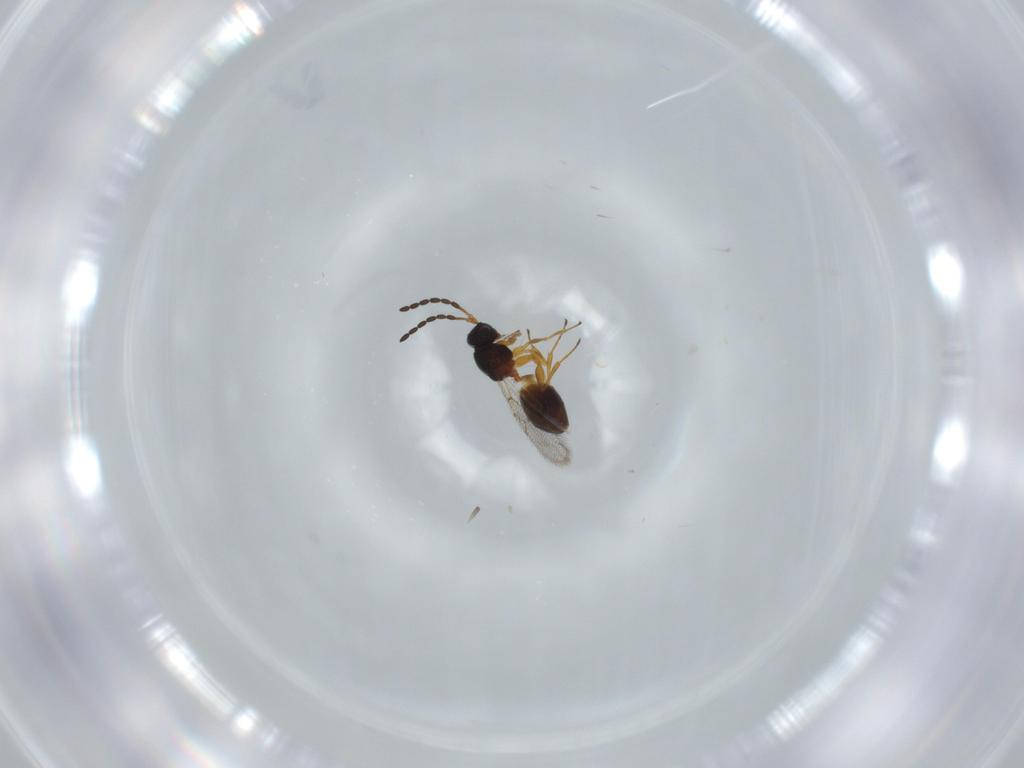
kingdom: Animalia
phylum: Arthropoda
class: Insecta
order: Hymenoptera
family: Figitidae
